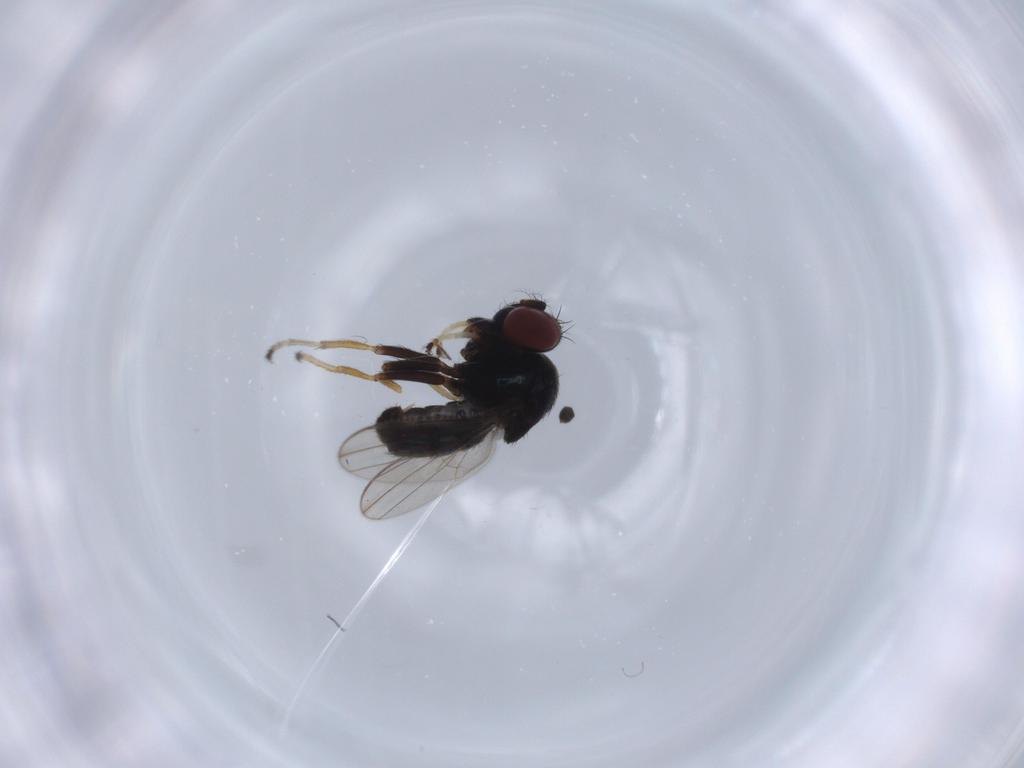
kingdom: Animalia
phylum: Arthropoda
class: Insecta
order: Diptera
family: Ephydridae
